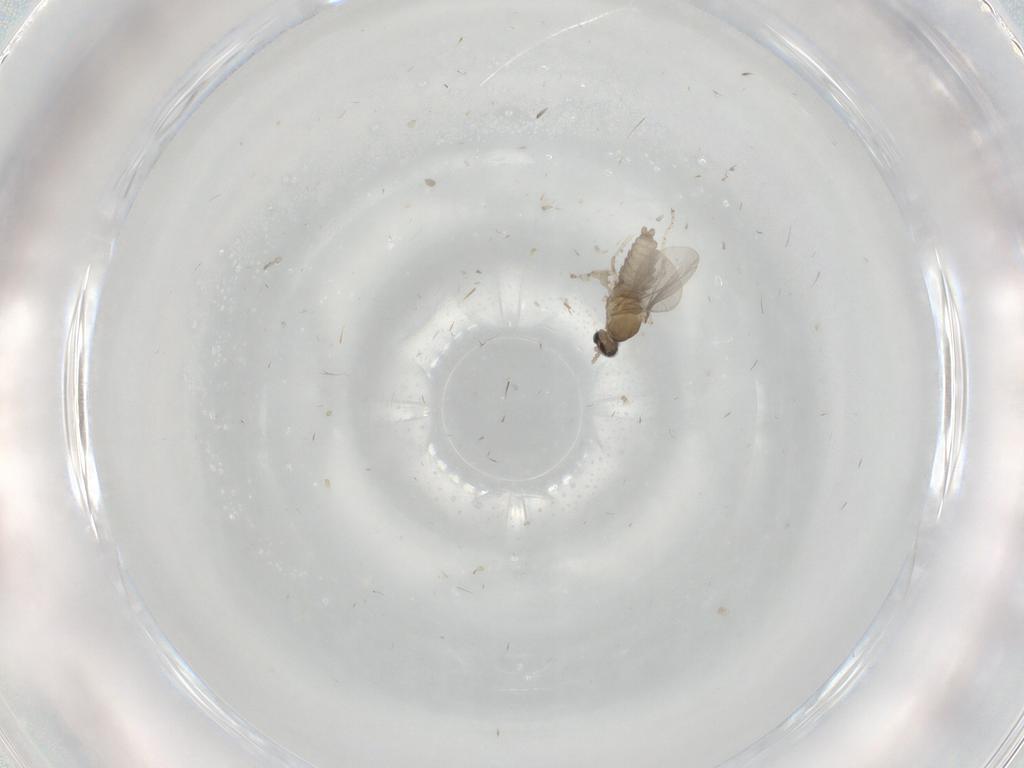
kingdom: Animalia
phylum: Arthropoda
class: Insecta
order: Diptera
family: Cecidomyiidae
